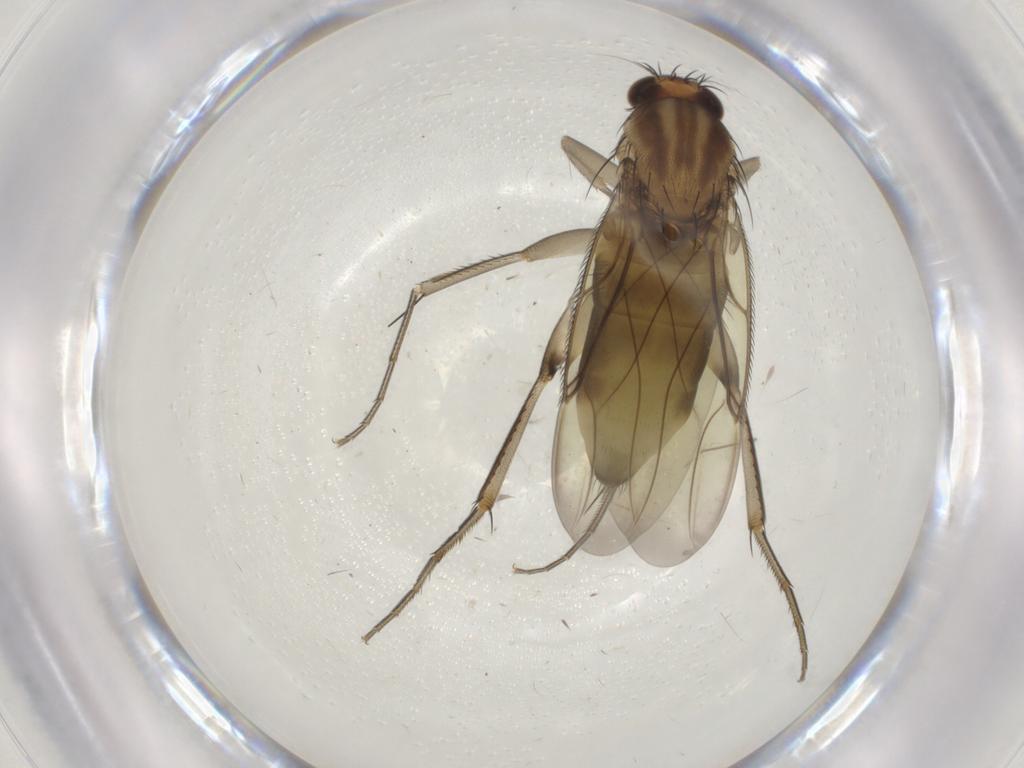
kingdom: Animalia
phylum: Arthropoda
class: Insecta
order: Diptera
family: Phoridae
